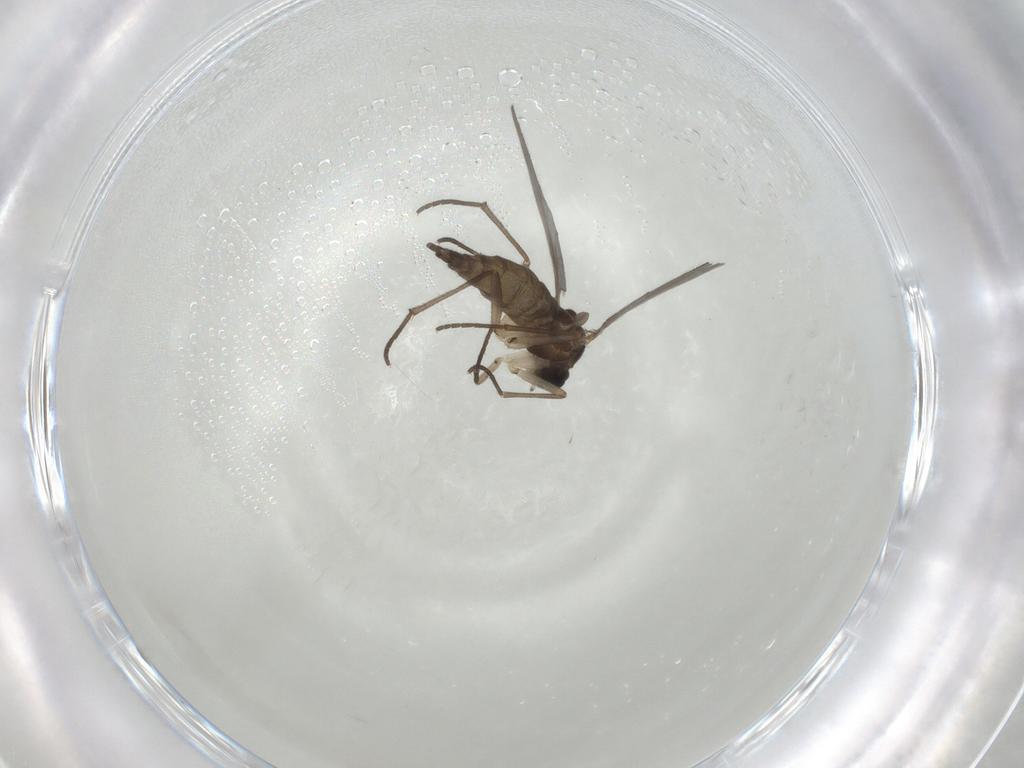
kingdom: Animalia
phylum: Arthropoda
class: Insecta
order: Diptera
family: Sciaridae
